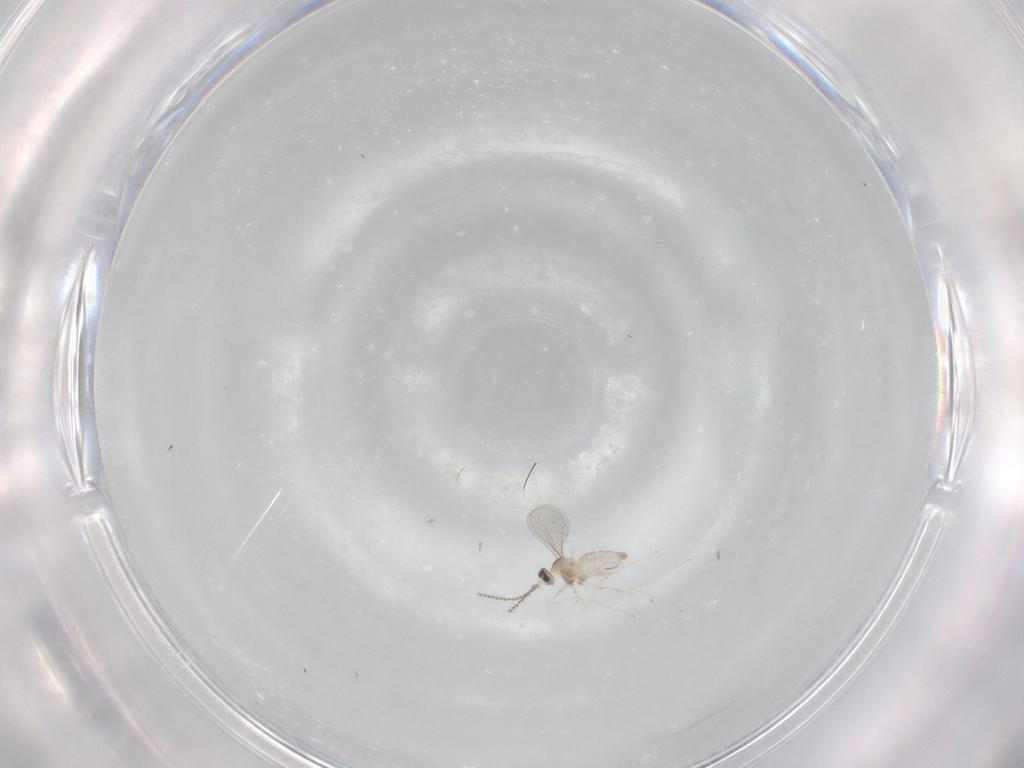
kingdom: Animalia
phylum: Arthropoda
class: Insecta
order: Diptera
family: Cecidomyiidae
